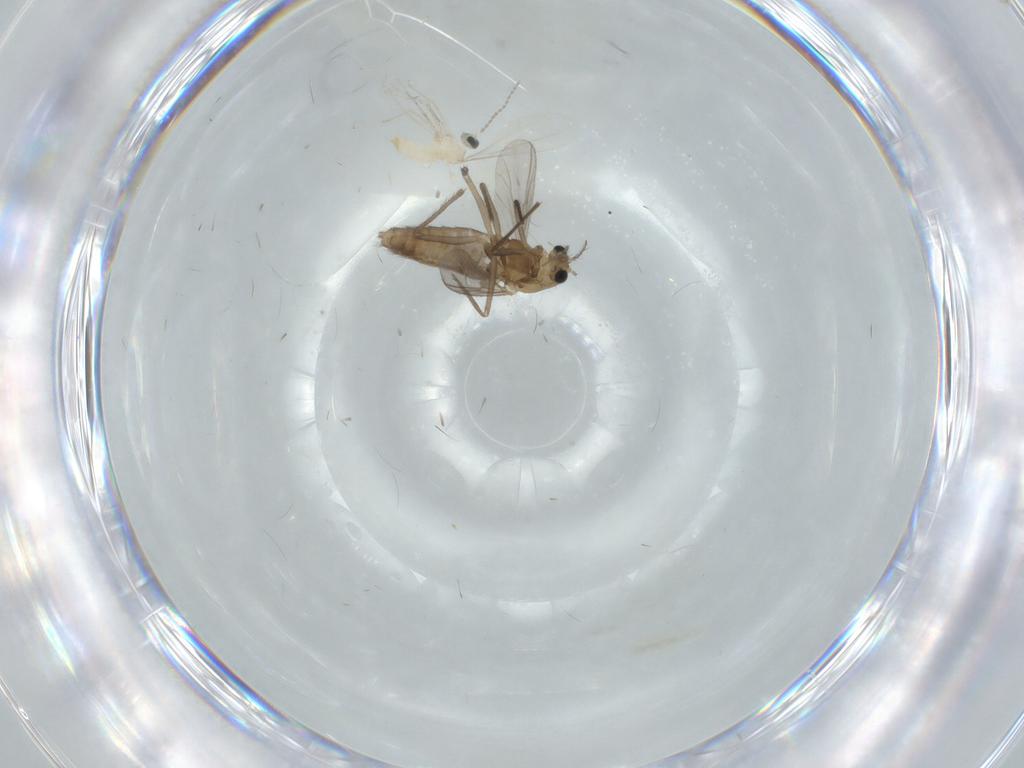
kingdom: Animalia
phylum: Arthropoda
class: Insecta
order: Diptera
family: Chironomidae
